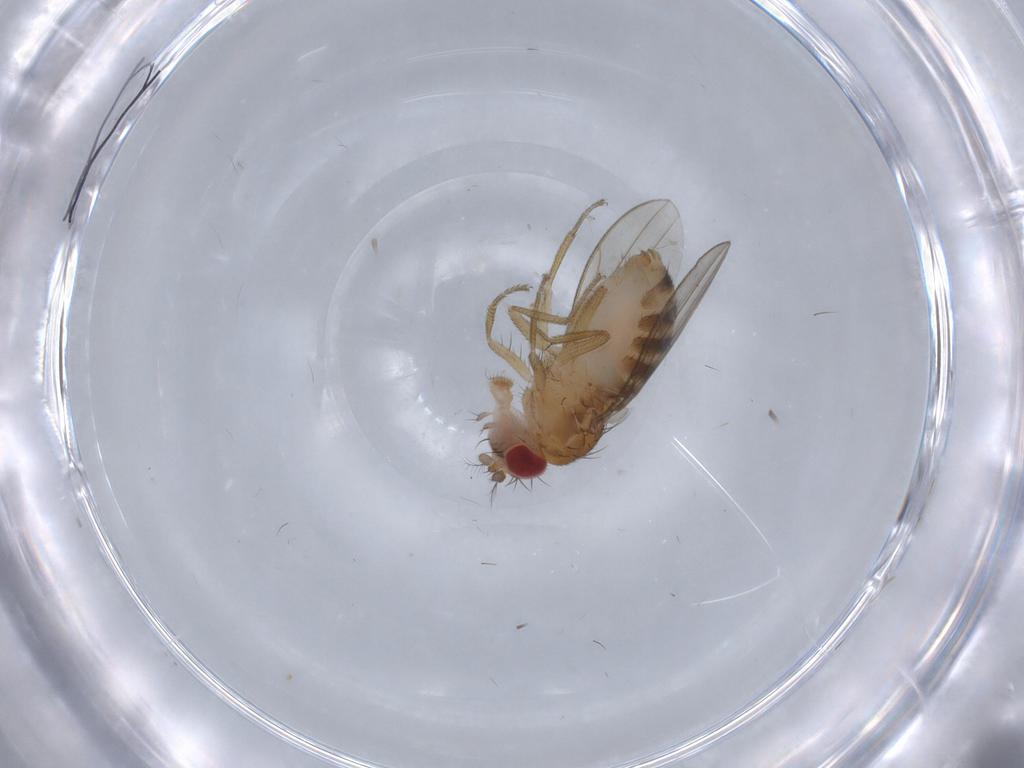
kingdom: Animalia
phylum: Arthropoda
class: Insecta
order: Diptera
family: Drosophilidae
